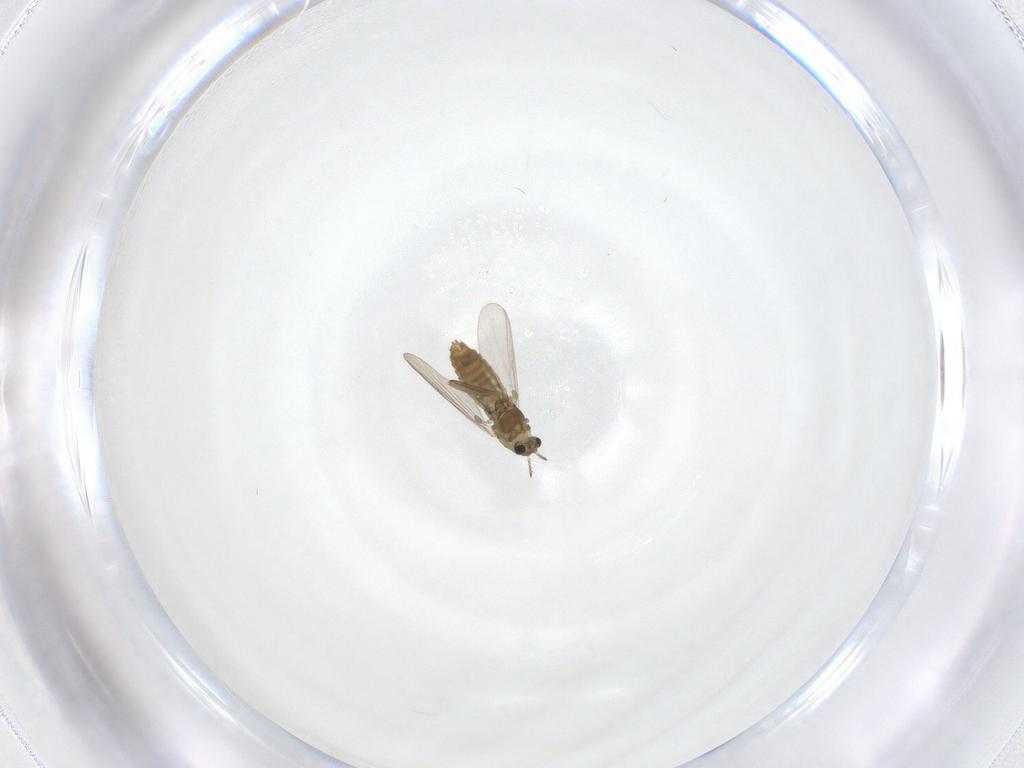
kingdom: Animalia
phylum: Arthropoda
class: Insecta
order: Diptera
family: Chironomidae
